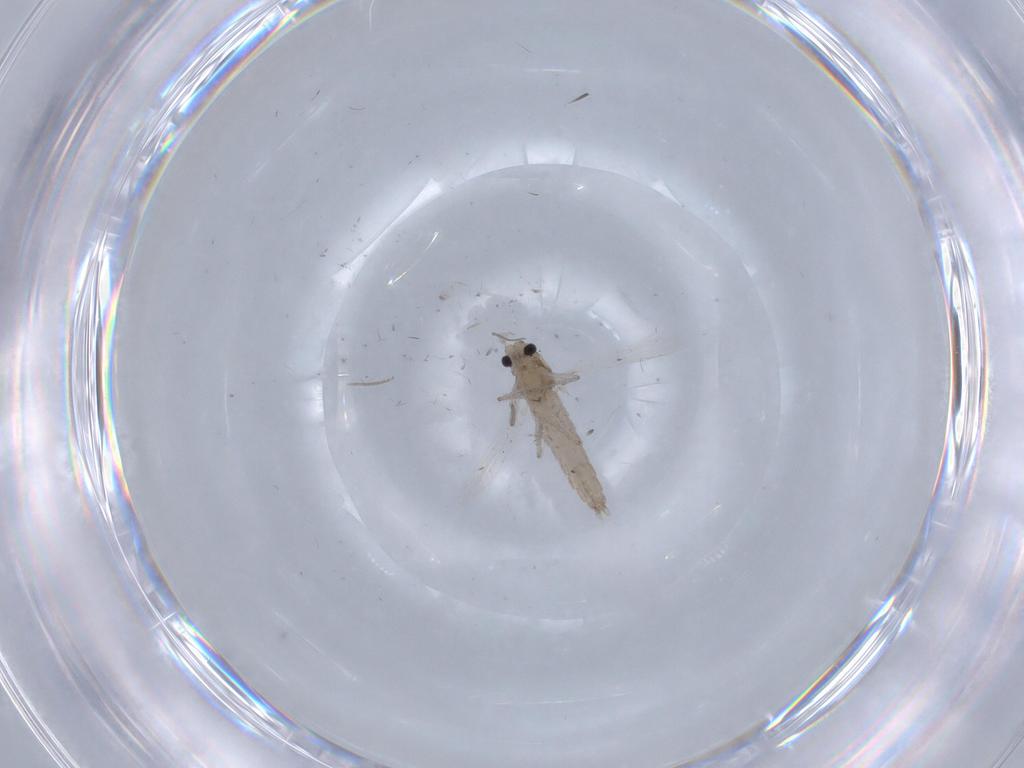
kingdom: Animalia
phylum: Arthropoda
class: Insecta
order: Diptera
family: Chironomidae
